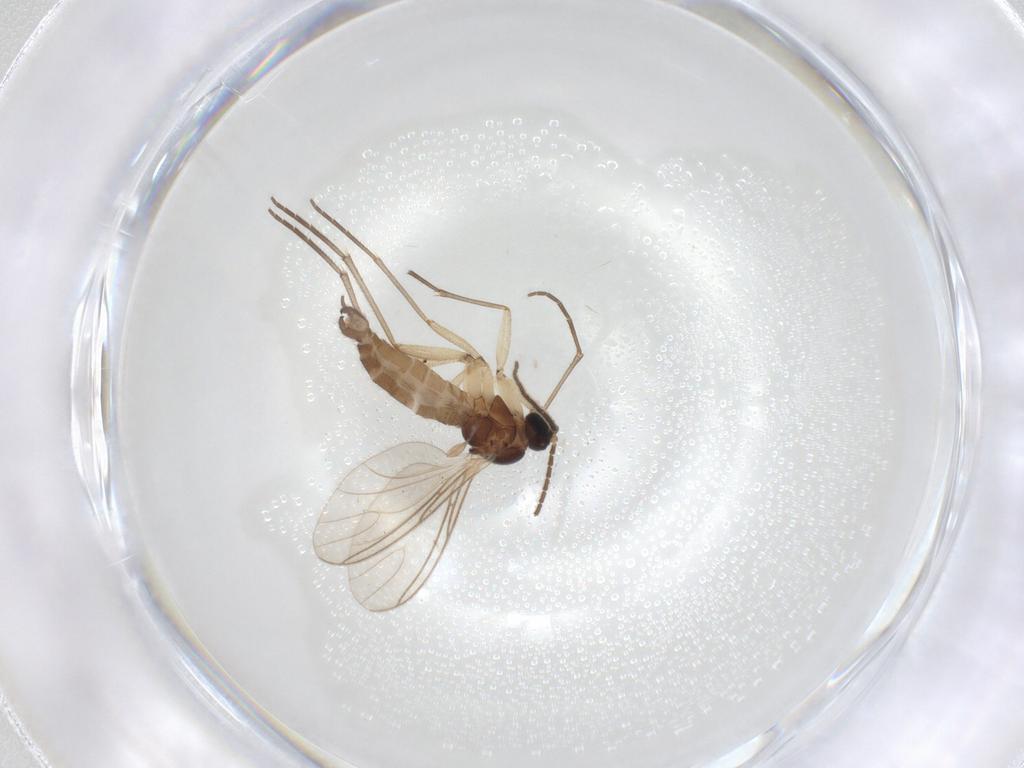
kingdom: Animalia
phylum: Arthropoda
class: Insecta
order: Diptera
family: Sciaridae
